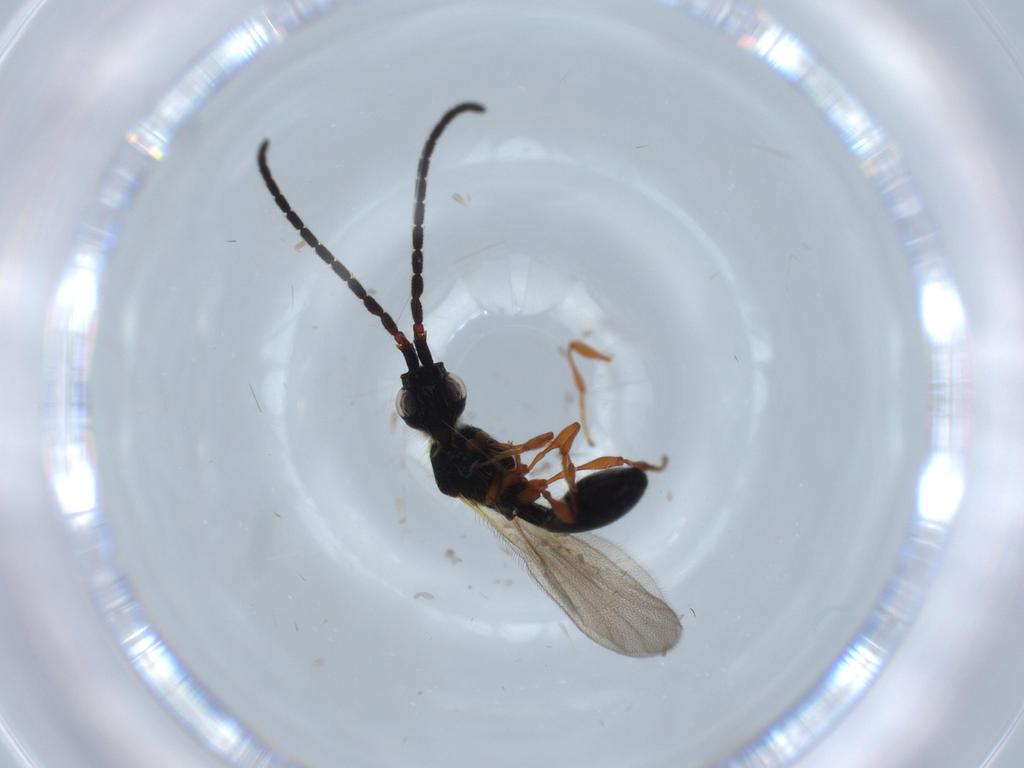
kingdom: Animalia
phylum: Arthropoda
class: Insecta
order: Hymenoptera
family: Diapriidae
